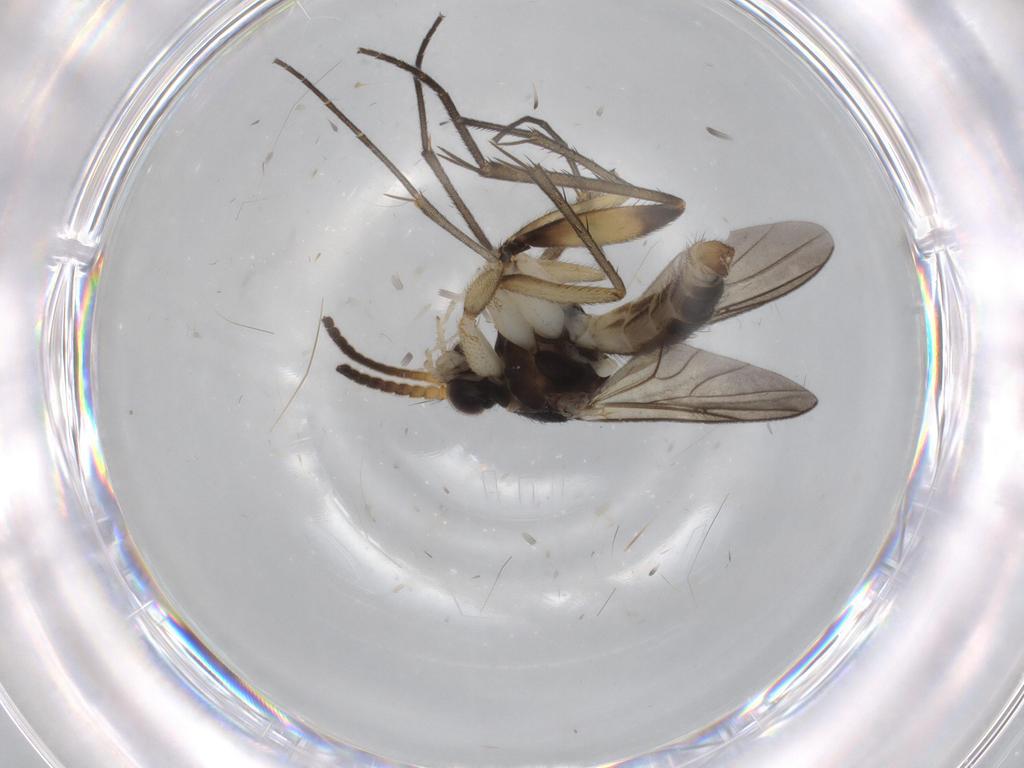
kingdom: Animalia
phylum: Arthropoda
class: Insecta
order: Diptera
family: Sciaridae
